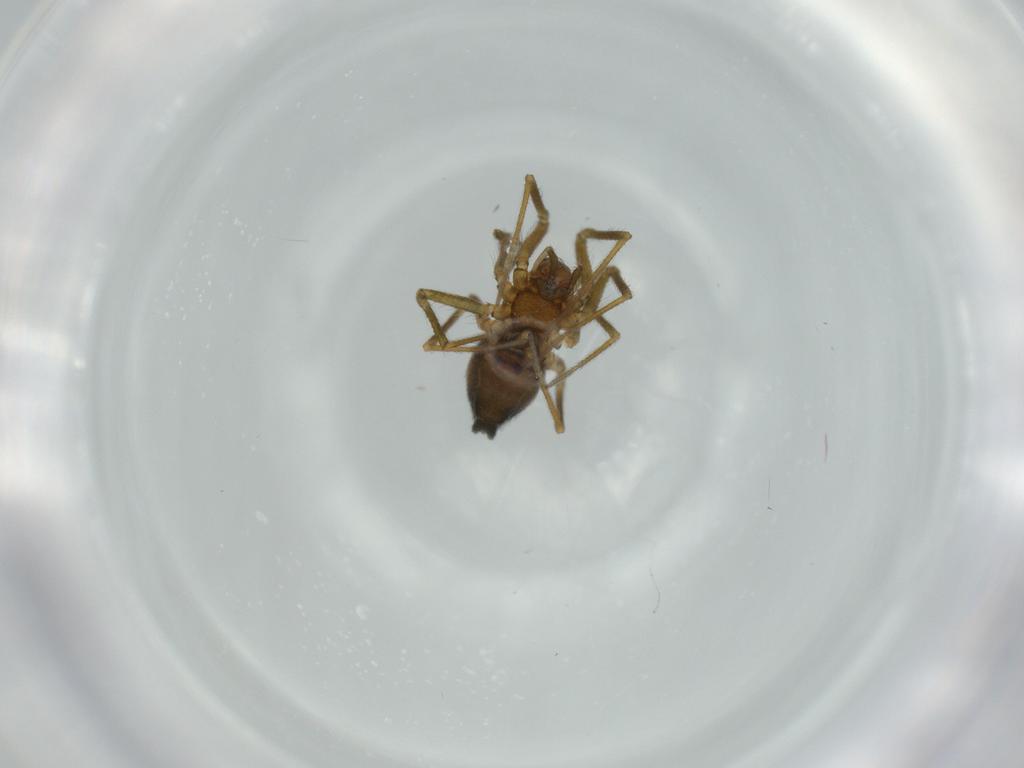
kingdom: Animalia
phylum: Arthropoda
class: Arachnida
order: Araneae
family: Linyphiidae
